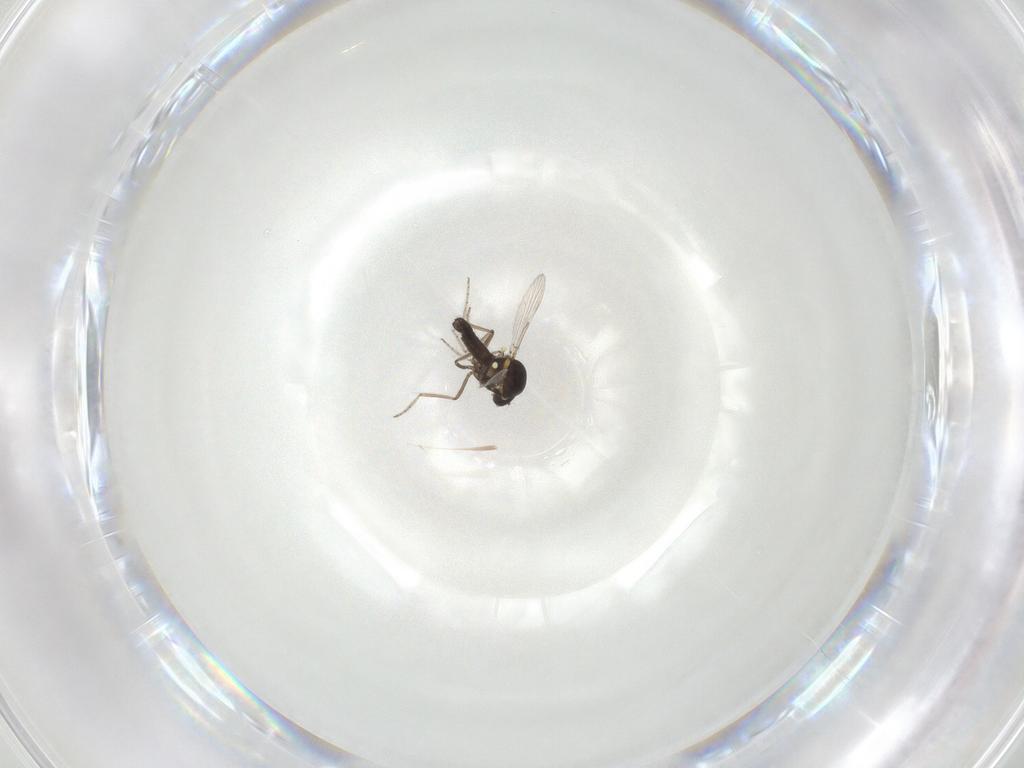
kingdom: Animalia
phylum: Arthropoda
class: Insecta
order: Diptera
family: Ceratopogonidae
